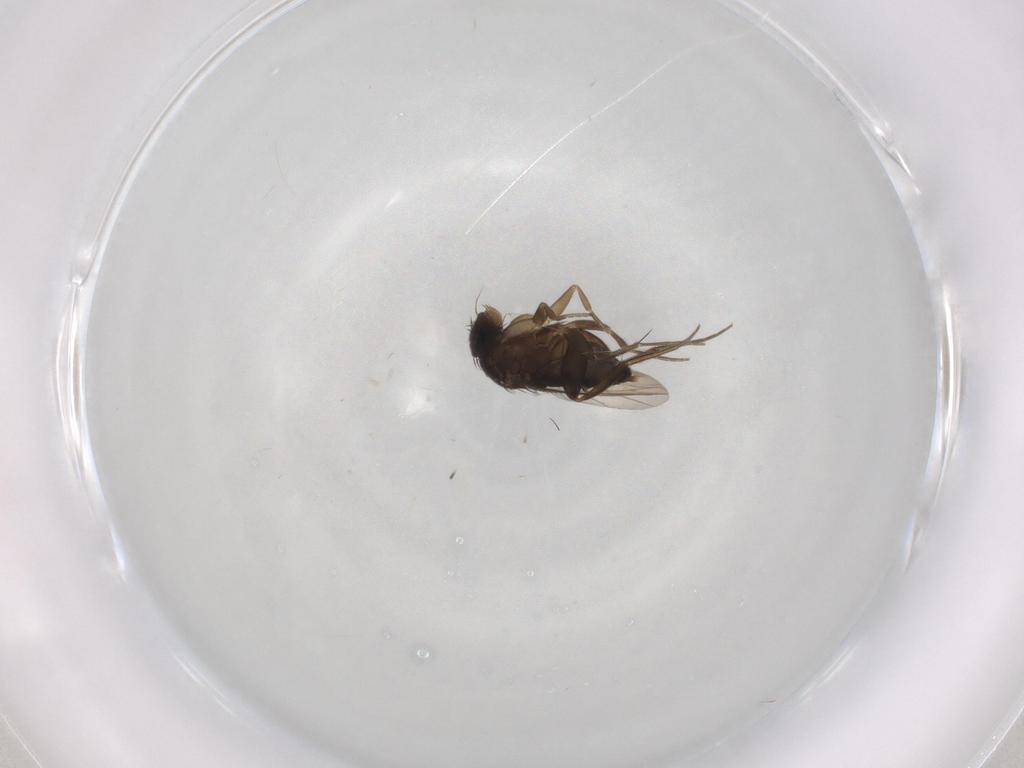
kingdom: Animalia
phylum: Arthropoda
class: Insecta
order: Diptera
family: Phoridae
